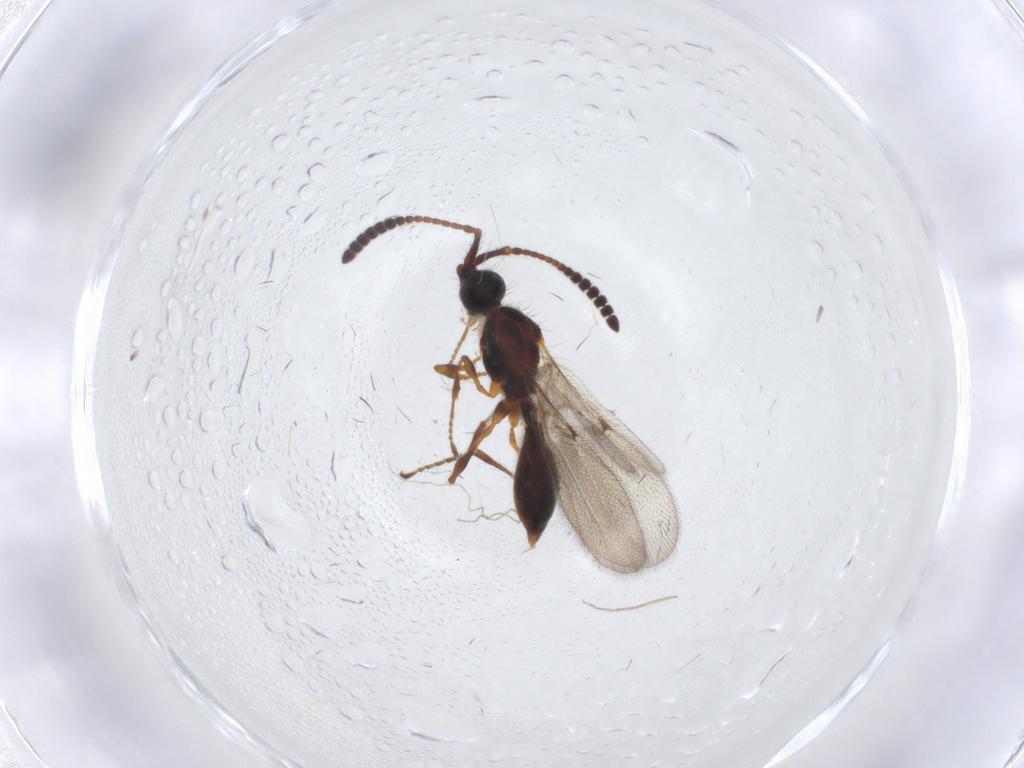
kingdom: Animalia
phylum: Arthropoda
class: Insecta
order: Hymenoptera
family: Diapriidae
